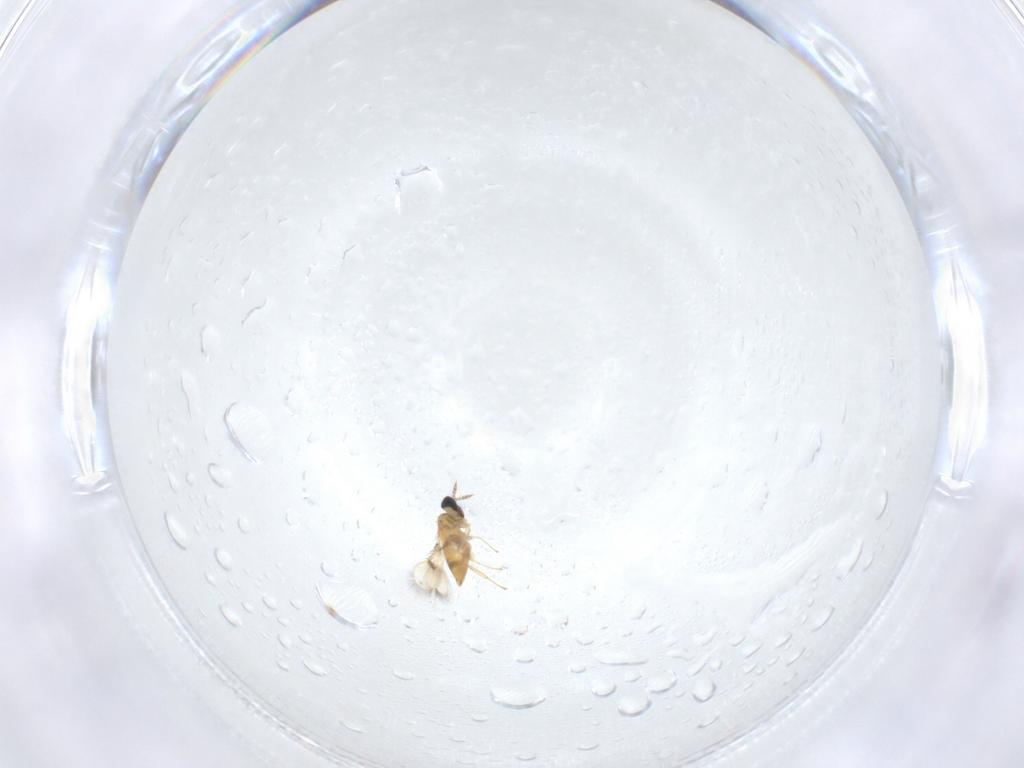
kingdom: Animalia
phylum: Arthropoda
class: Insecta
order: Hymenoptera
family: Trichogrammatidae
